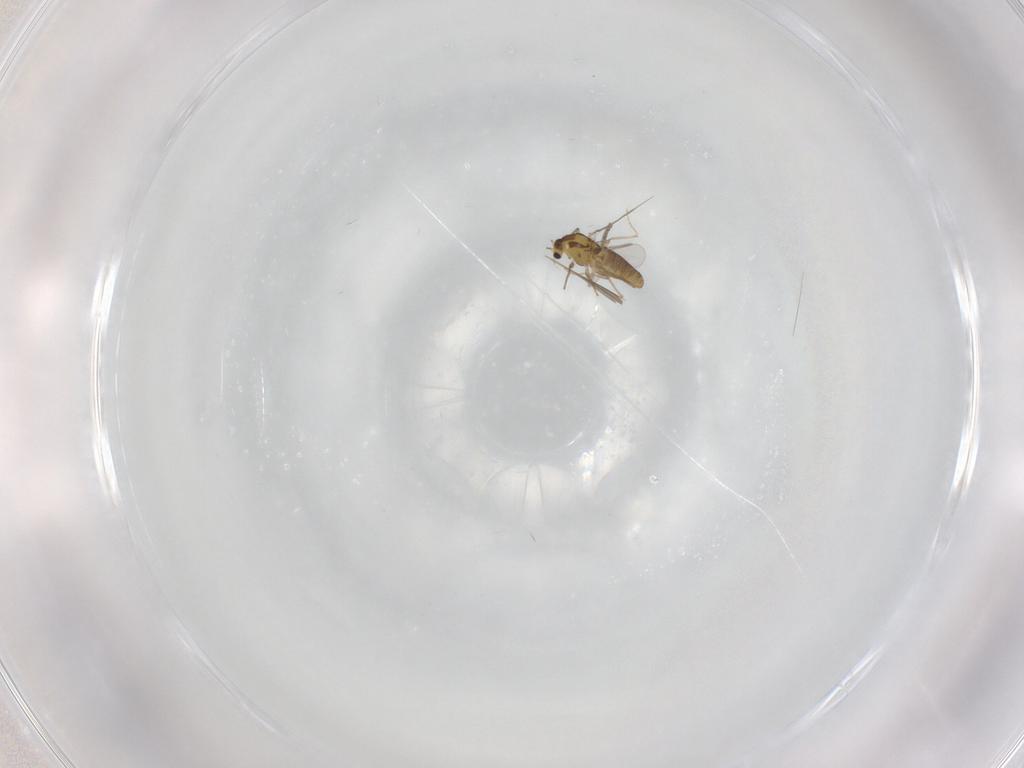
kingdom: Animalia
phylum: Arthropoda
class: Insecta
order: Diptera
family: Psychodidae
